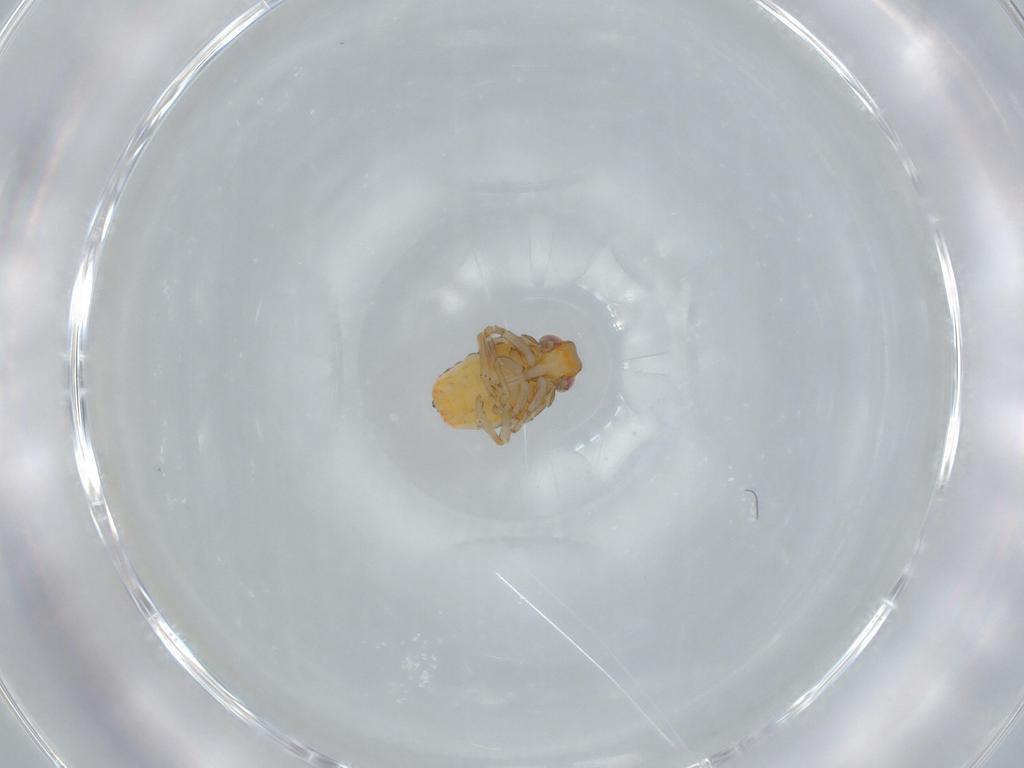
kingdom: Animalia
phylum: Arthropoda
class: Insecta
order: Hemiptera
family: Issidae
